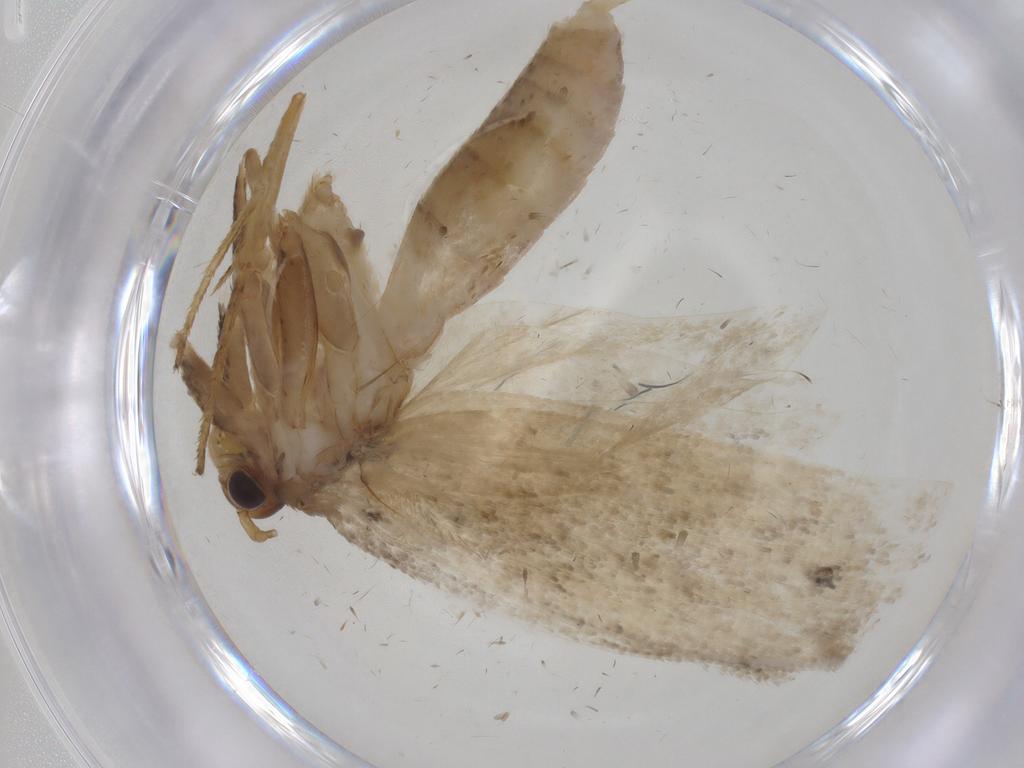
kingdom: Animalia
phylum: Arthropoda
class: Insecta
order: Lepidoptera
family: Depressariidae
